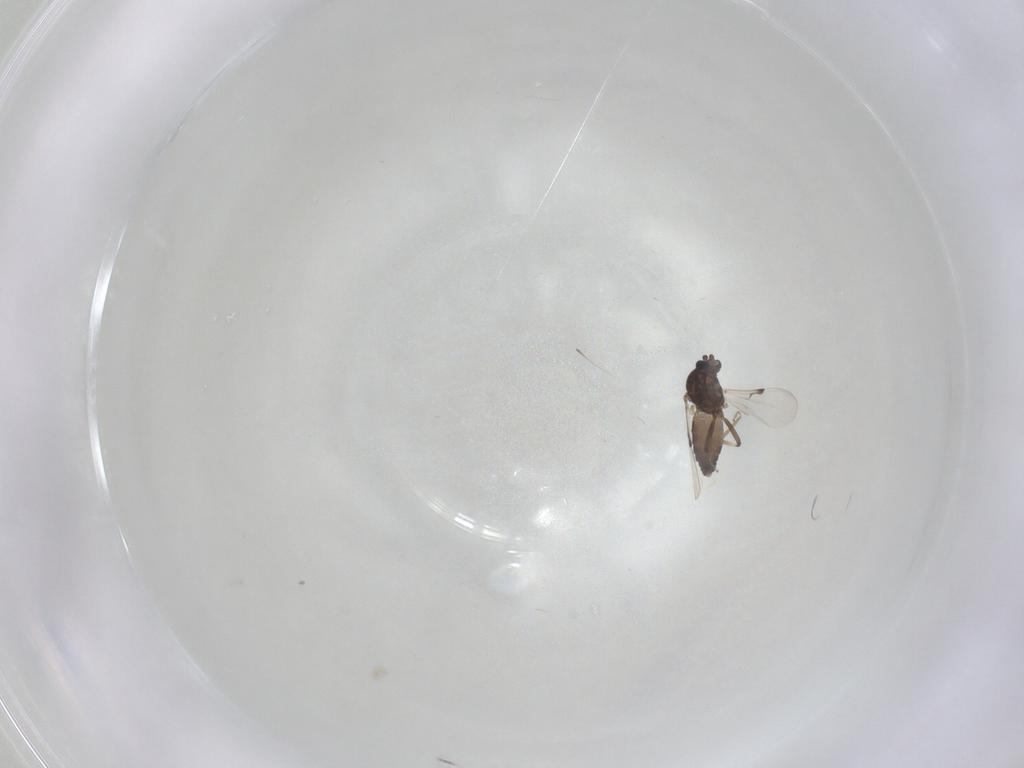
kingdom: Animalia
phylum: Arthropoda
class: Insecta
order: Diptera
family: Ceratopogonidae
